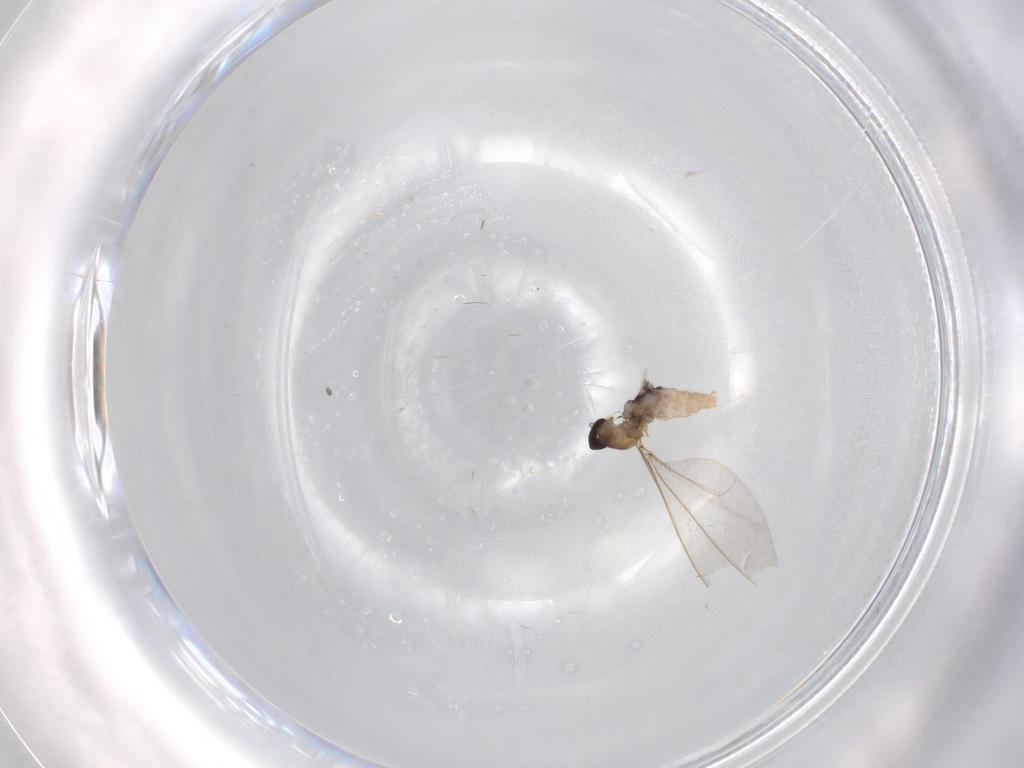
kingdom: Animalia
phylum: Arthropoda
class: Insecta
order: Diptera
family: Cecidomyiidae
